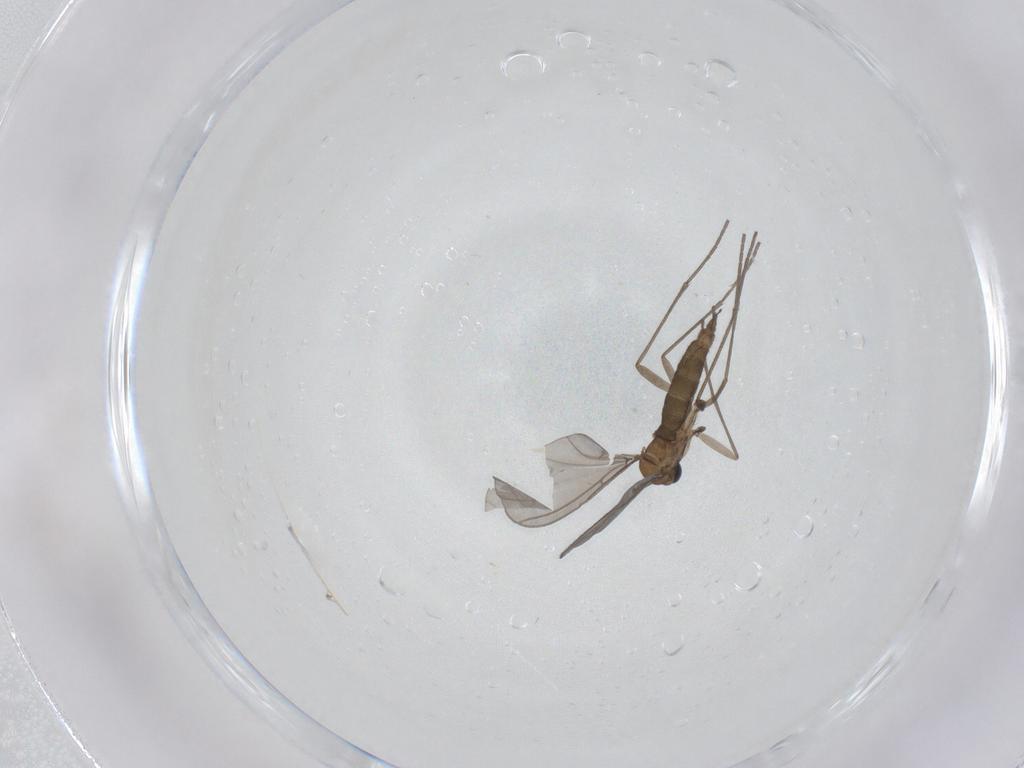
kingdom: Animalia
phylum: Arthropoda
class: Insecta
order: Diptera
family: Sciaridae
